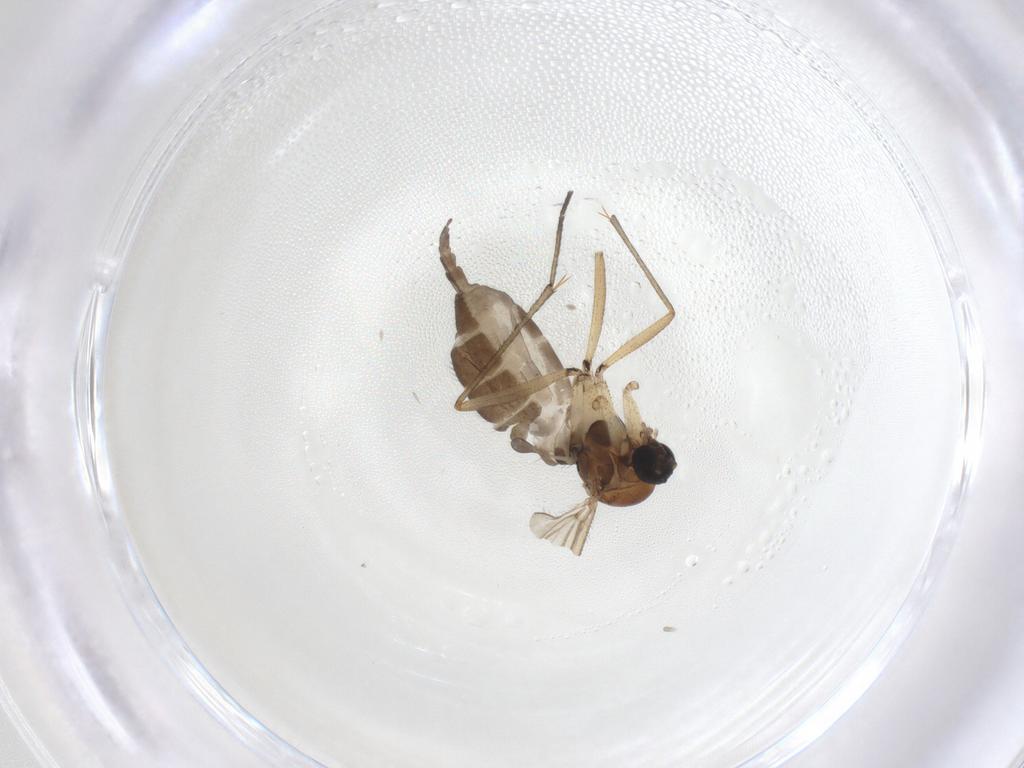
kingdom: Animalia
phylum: Arthropoda
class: Insecta
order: Diptera
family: Sciaridae
